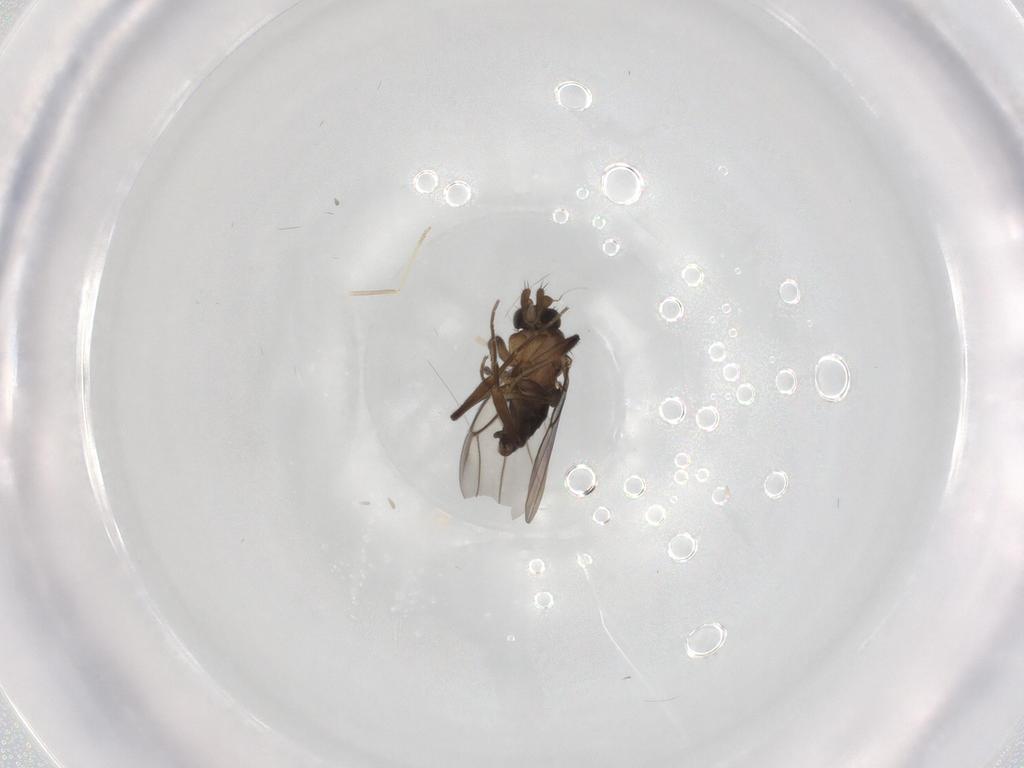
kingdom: Animalia
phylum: Arthropoda
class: Insecta
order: Diptera
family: Phoridae
